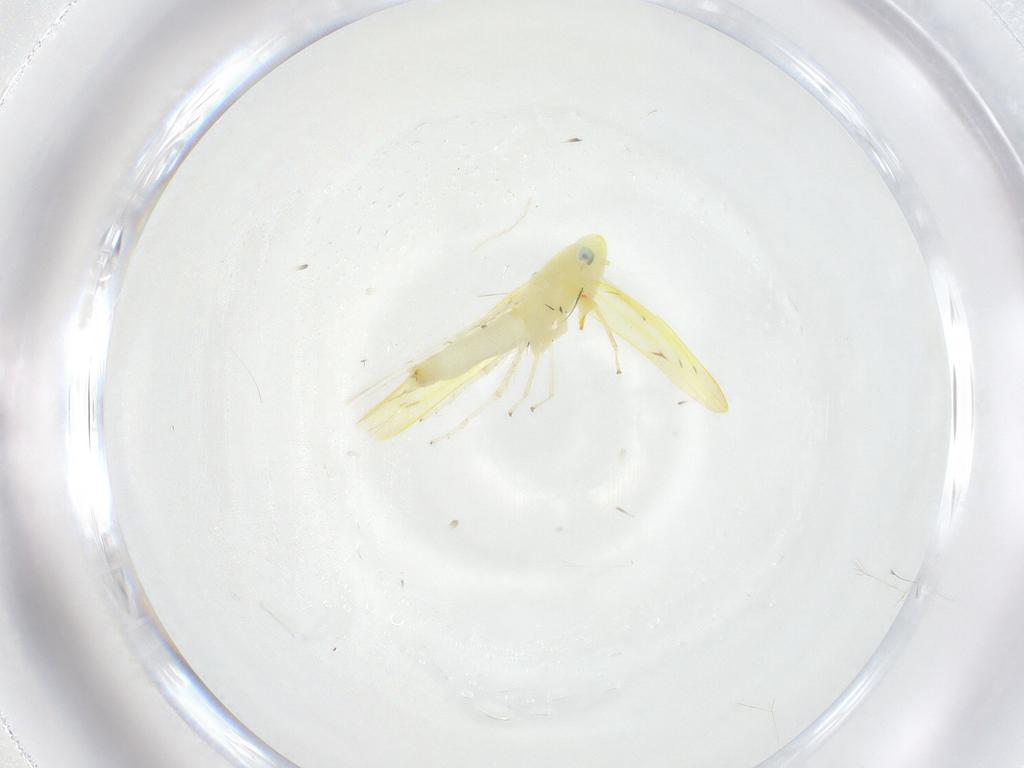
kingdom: Animalia
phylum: Arthropoda
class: Insecta
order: Hemiptera
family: Cicadellidae
